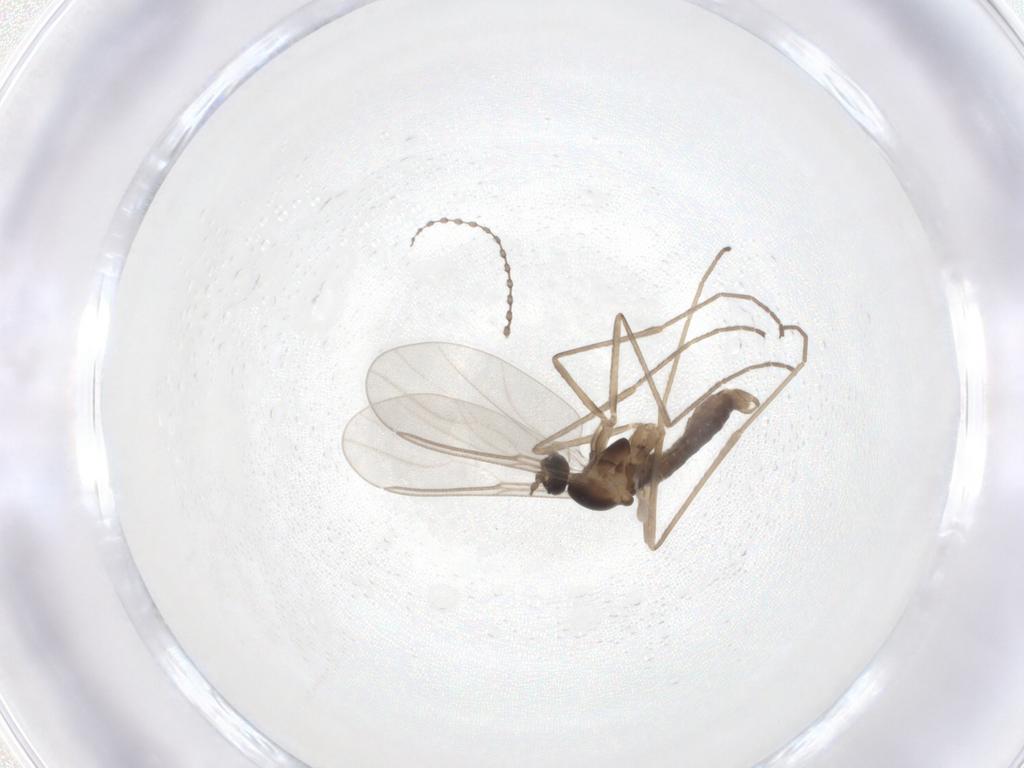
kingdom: Animalia
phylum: Arthropoda
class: Insecta
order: Diptera
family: Cecidomyiidae
